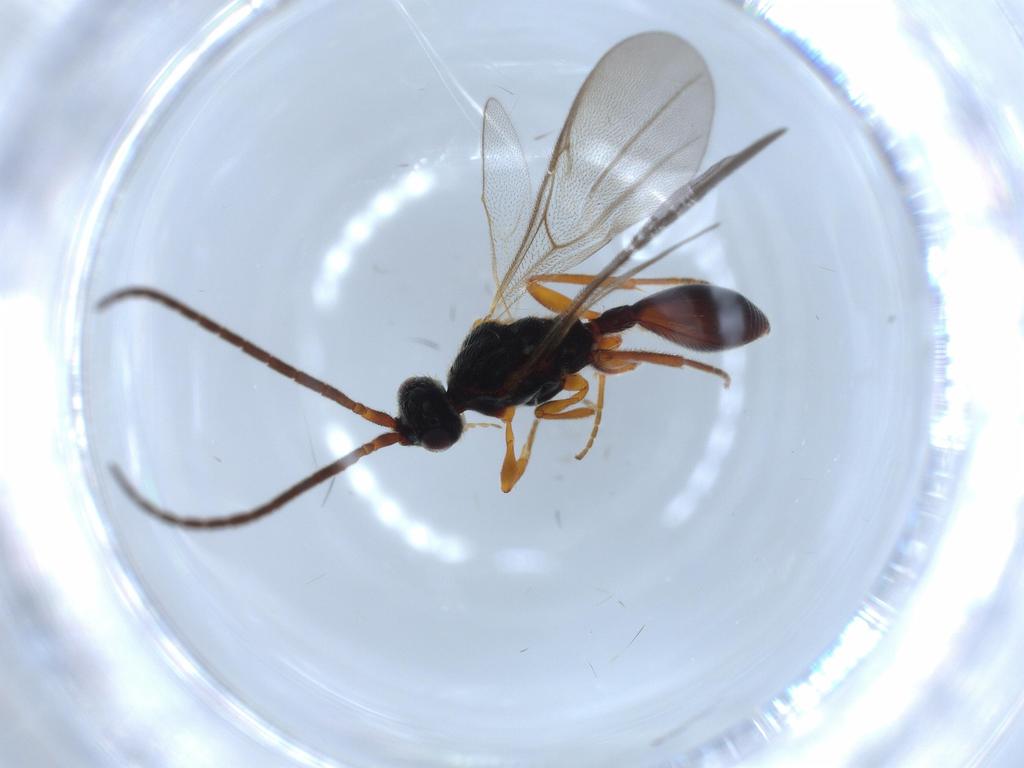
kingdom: Animalia
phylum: Arthropoda
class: Insecta
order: Hymenoptera
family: Diapriidae
